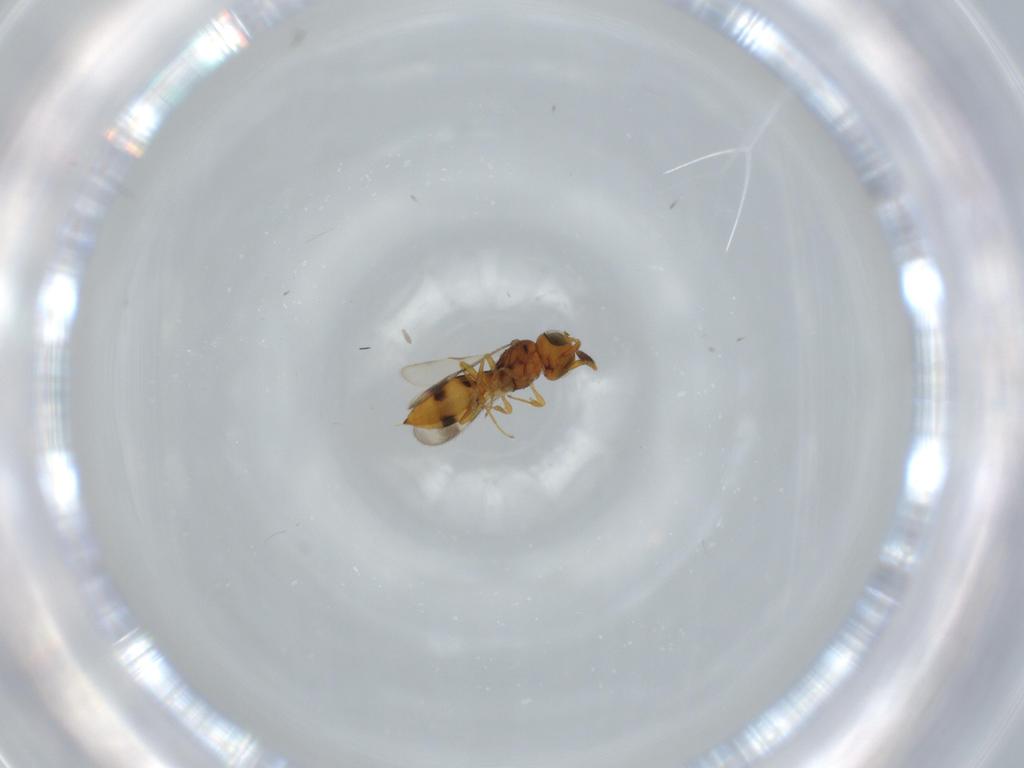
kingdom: Animalia
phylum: Arthropoda
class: Insecta
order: Hymenoptera
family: Scelionidae
